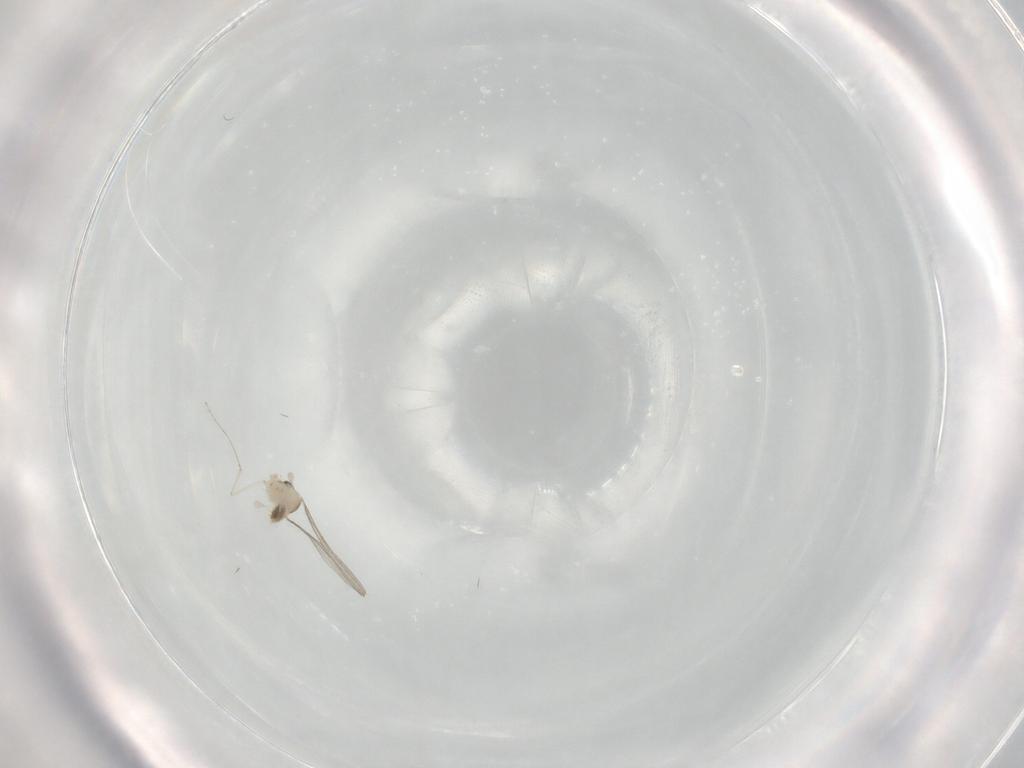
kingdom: Animalia
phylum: Arthropoda
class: Insecta
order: Diptera
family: Cecidomyiidae
